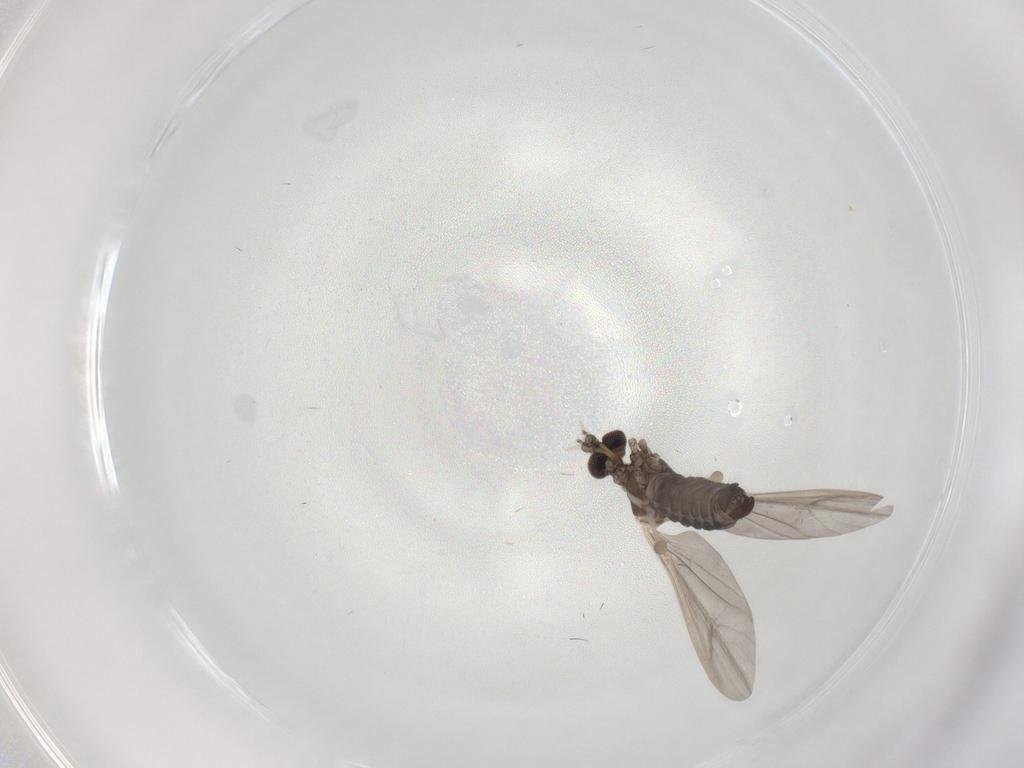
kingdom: Animalia
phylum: Arthropoda
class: Insecta
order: Diptera
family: Limoniidae
